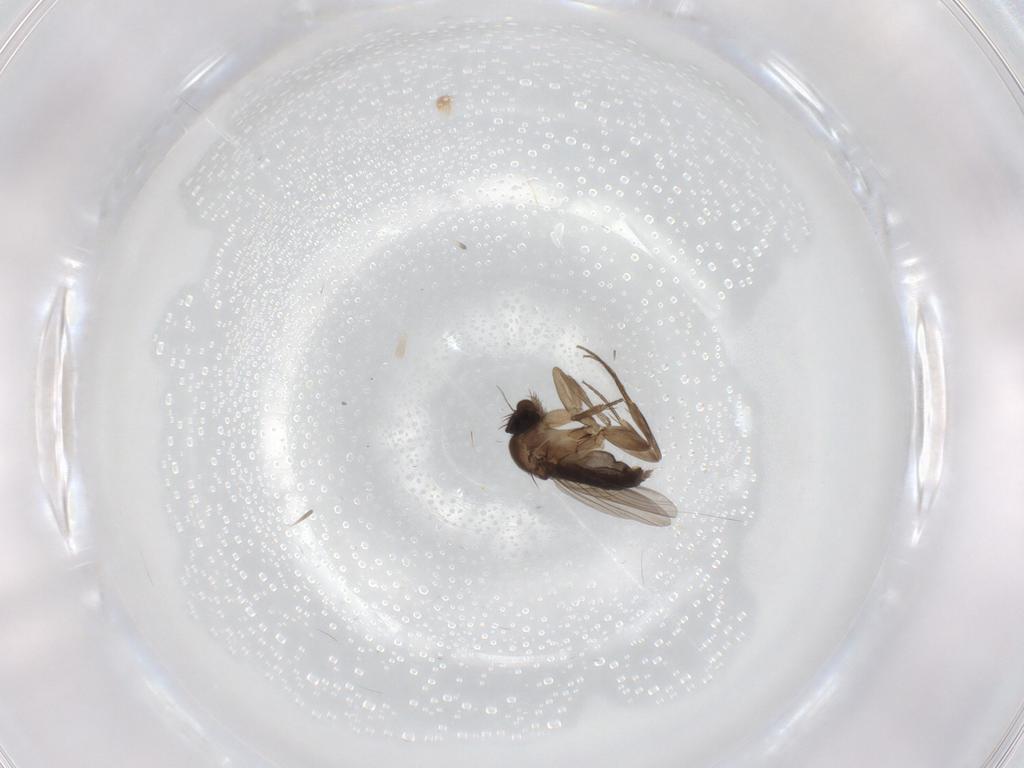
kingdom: Animalia
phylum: Arthropoda
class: Insecta
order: Diptera
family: Phoridae
